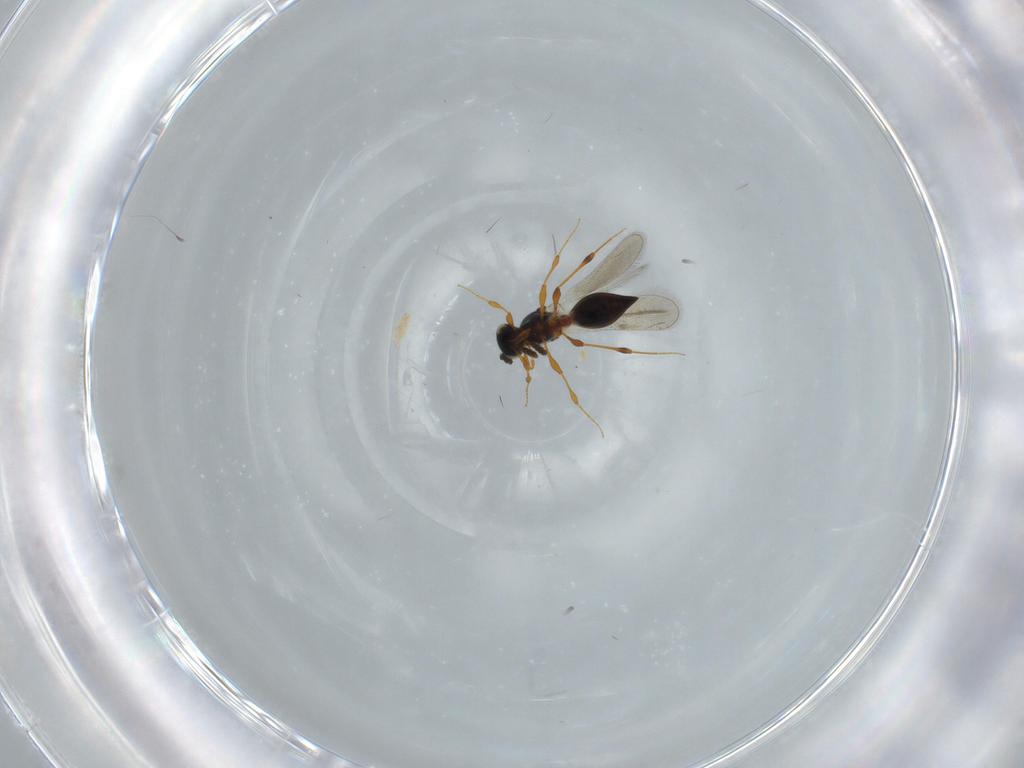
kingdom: Animalia
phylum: Arthropoda
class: Insecta
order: Hymenoptera
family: Platygastridae
